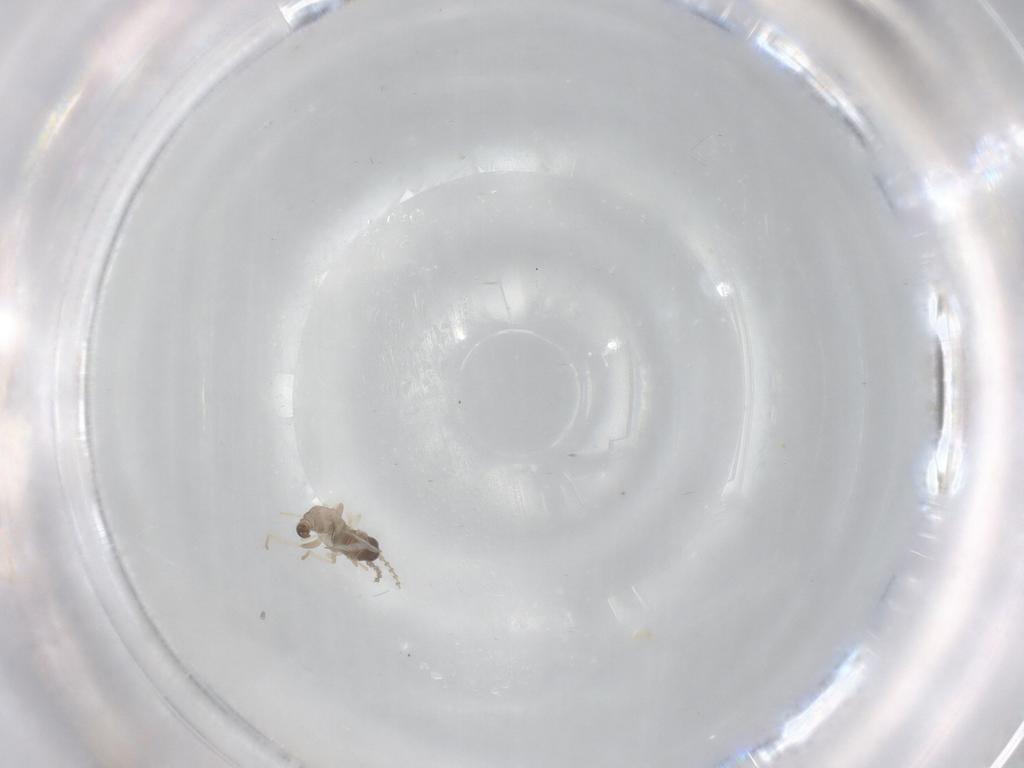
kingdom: Animalia
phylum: Arthropoda
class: Insecta
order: Diptera
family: Cecidomyiidae
